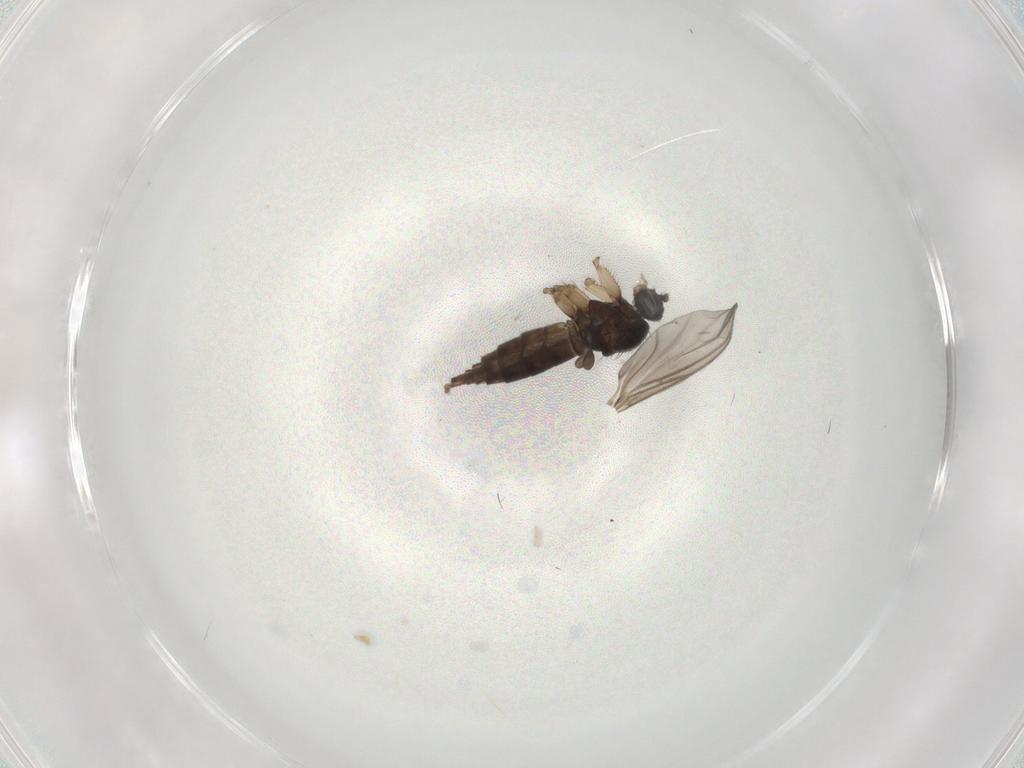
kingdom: Animalia
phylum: Arthropoda
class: Insecta
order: Diptera
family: Sciaridae
